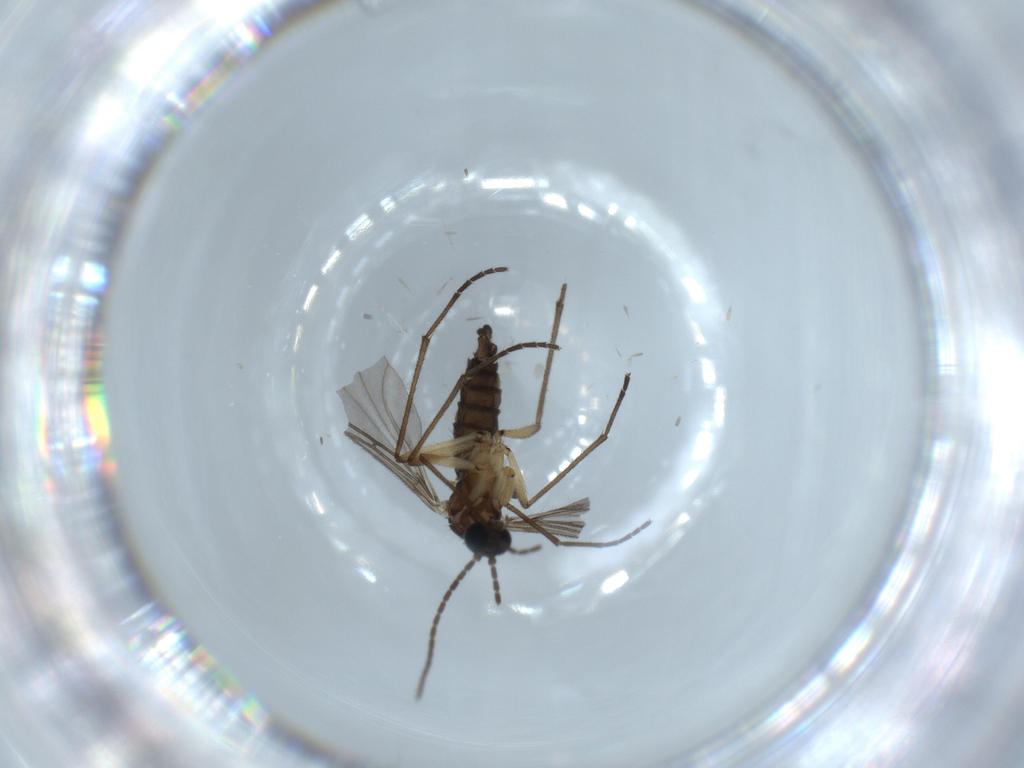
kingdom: Animalia
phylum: Arthropoda
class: Insecta
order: Diptera
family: Sciaridae
